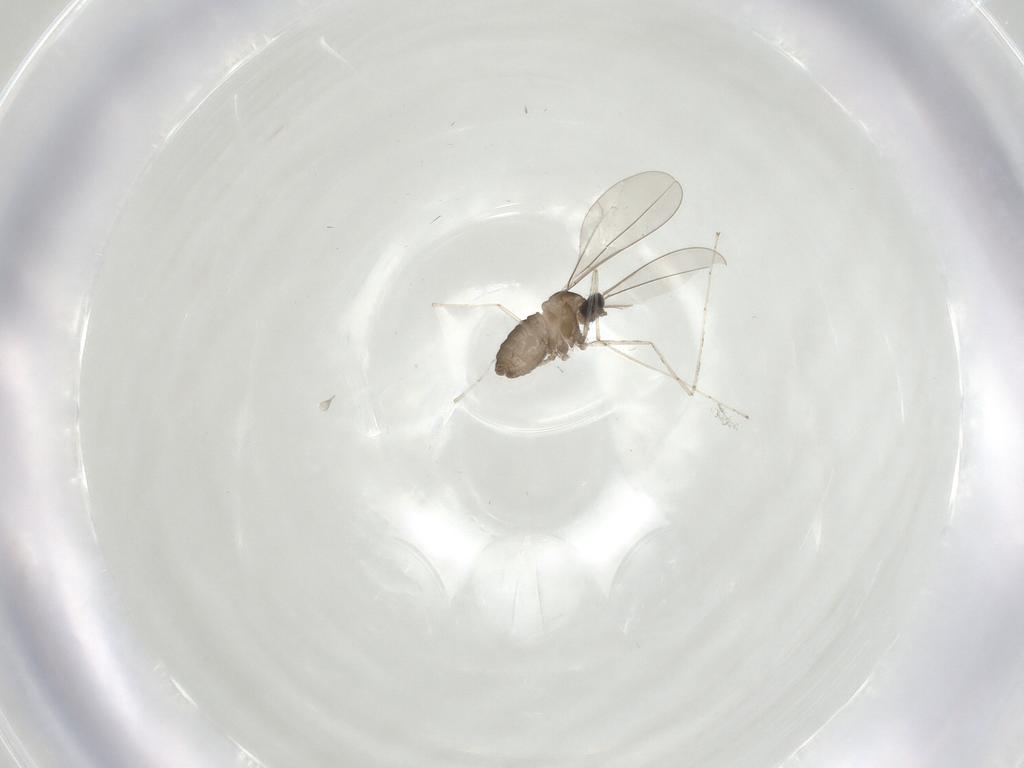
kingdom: Animalia
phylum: Arthropoda
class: Insecta
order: Diptera
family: Cecidomyiidae
